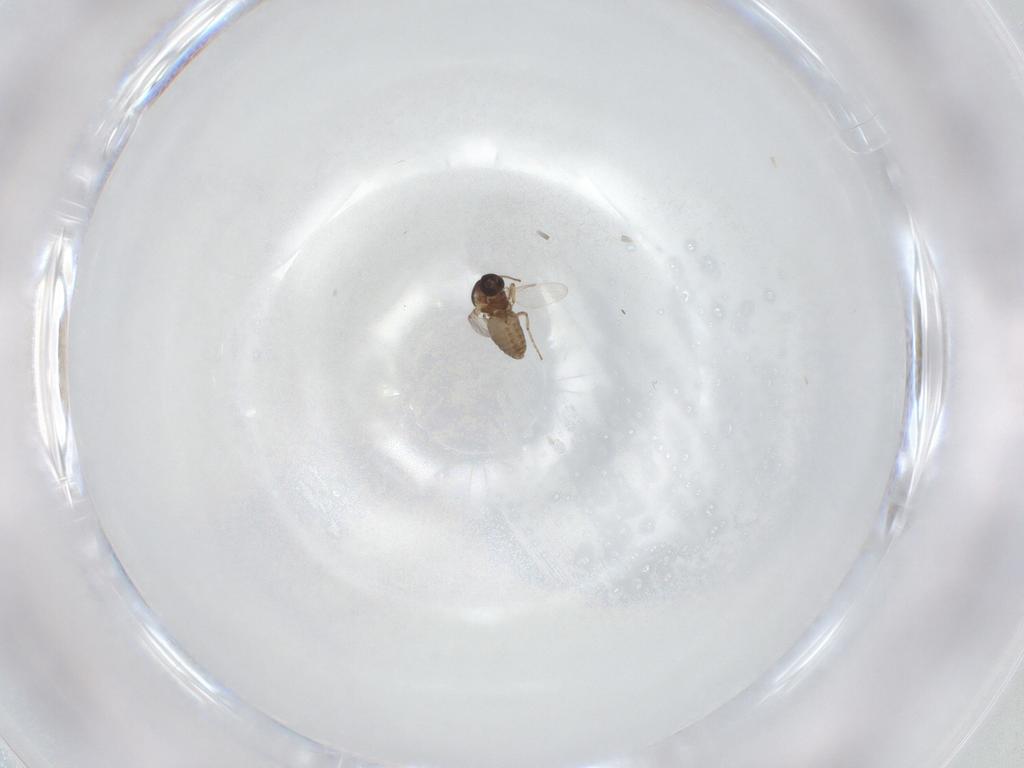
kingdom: Animalia
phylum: Arthropoda
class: Insecta
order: Diptera
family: Ceratopogonidae
